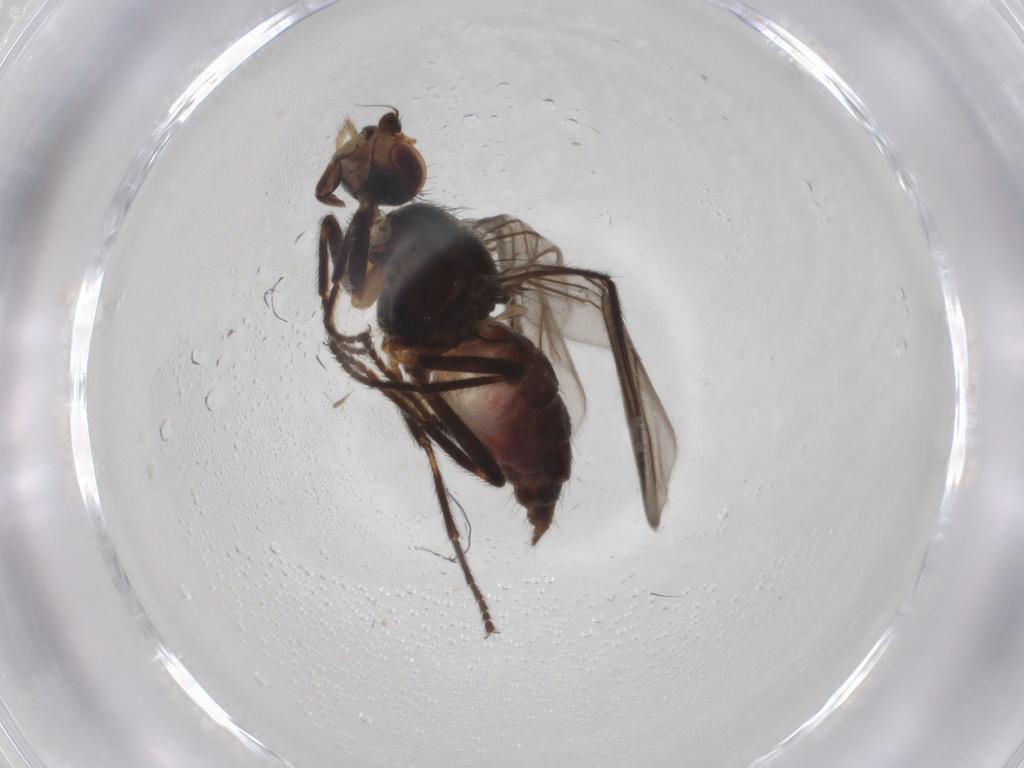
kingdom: Animalia
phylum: Arthropoda
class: Insecta
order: Diptera
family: Chloropidae
